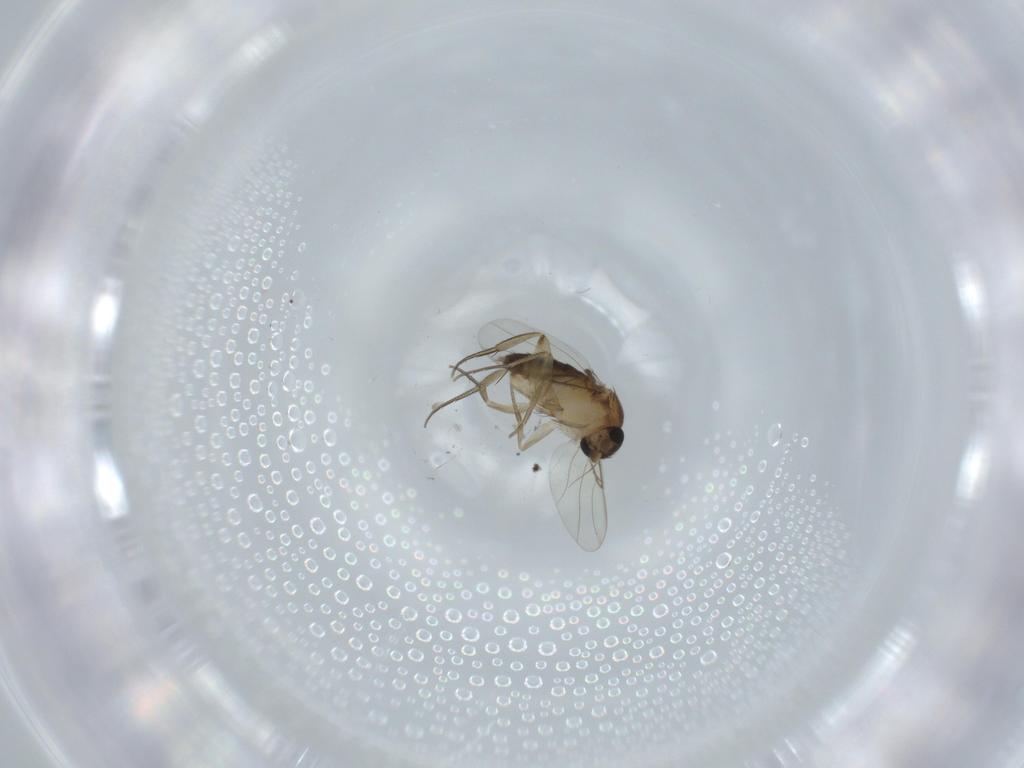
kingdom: Animalia
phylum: Arthropoda
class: Insecta
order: Diptera
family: Phoridae
